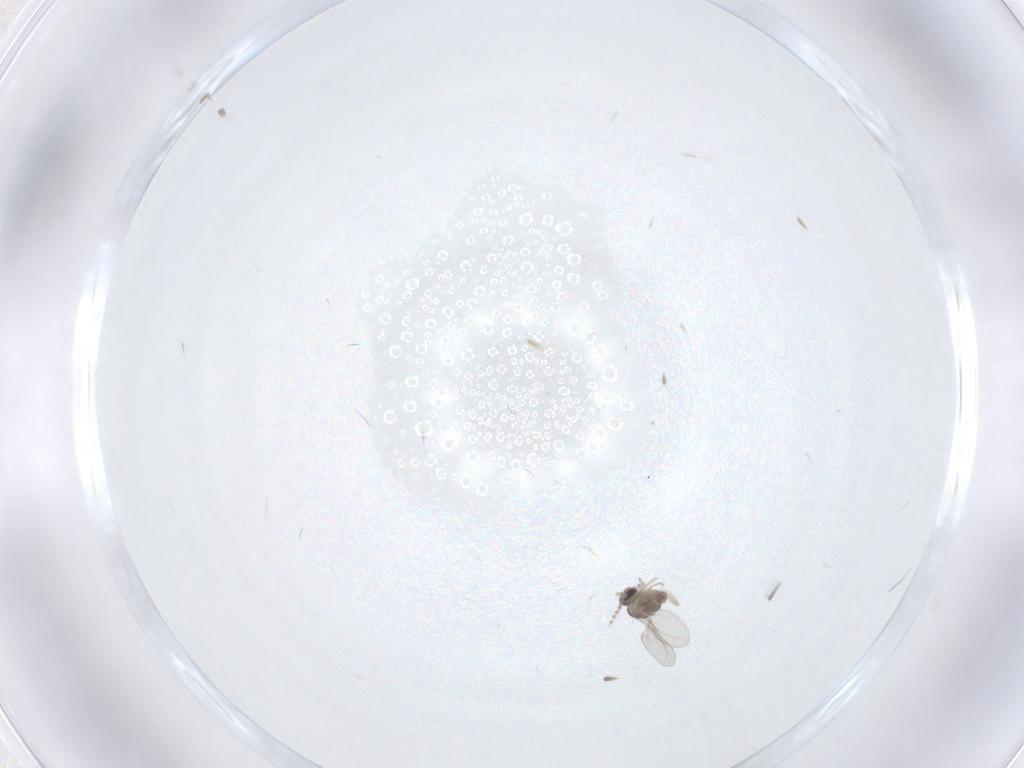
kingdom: Animalia
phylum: Arthropoda
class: Insecta
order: Diptera
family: Cecidomyiidae
